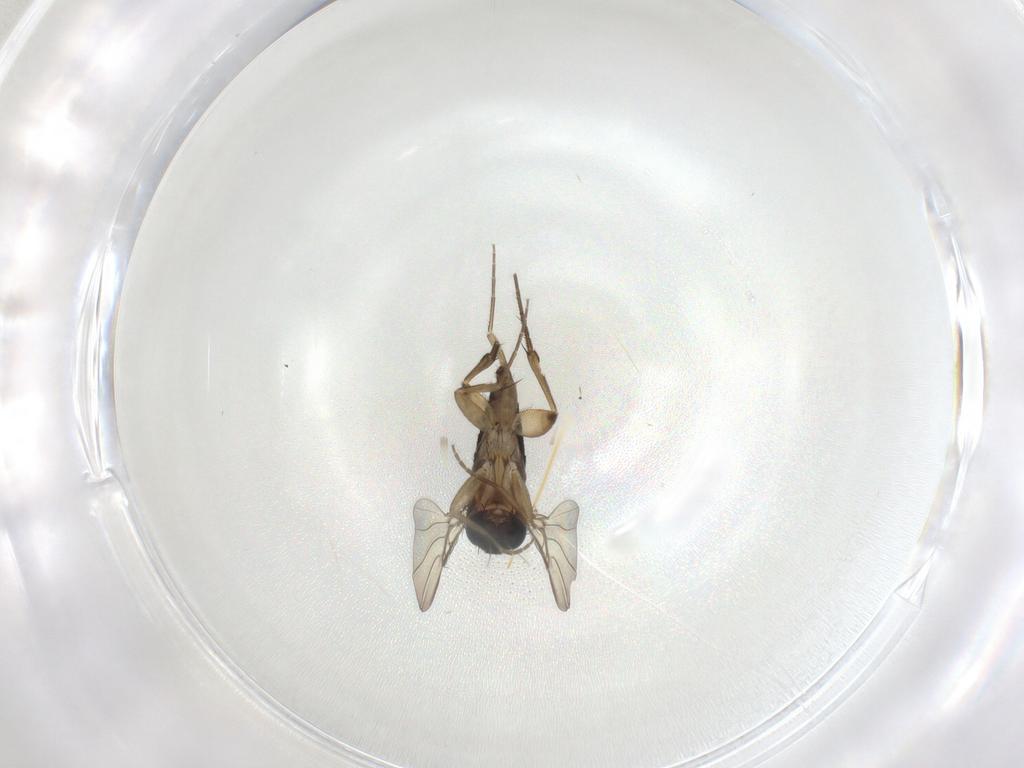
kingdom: Animalia
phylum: Arthropoda
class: Insecta
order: Diptera
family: Phoridae
